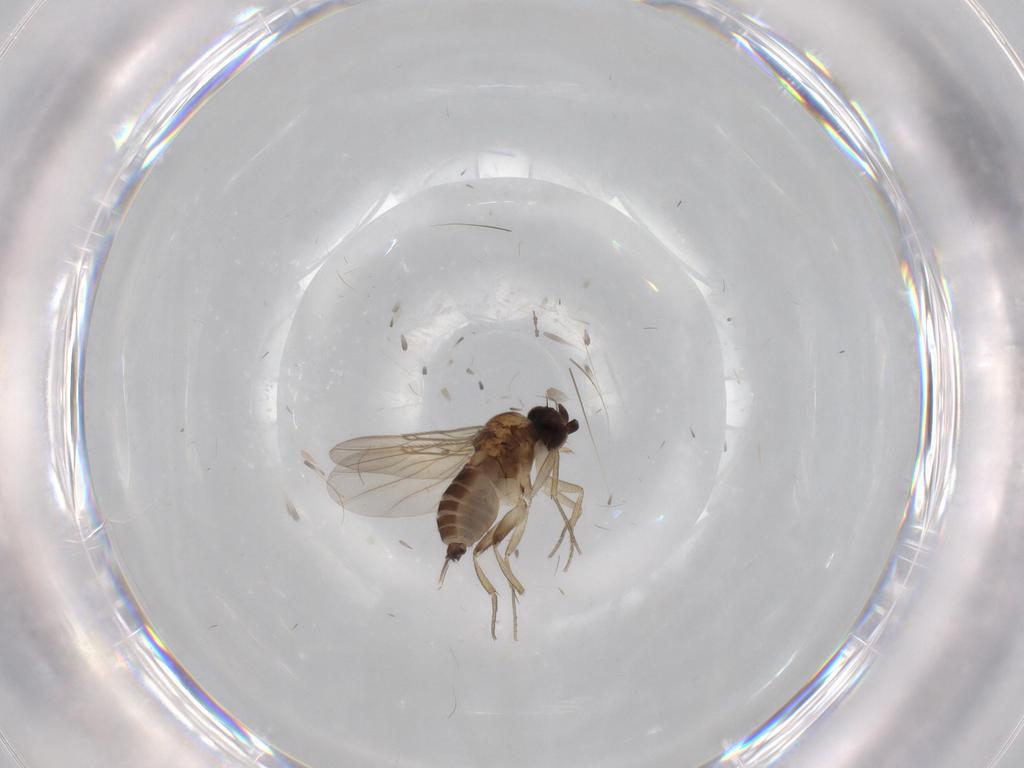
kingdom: Animalia
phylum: Arthropoda
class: Insecta
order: Diptera
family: Phoridae
